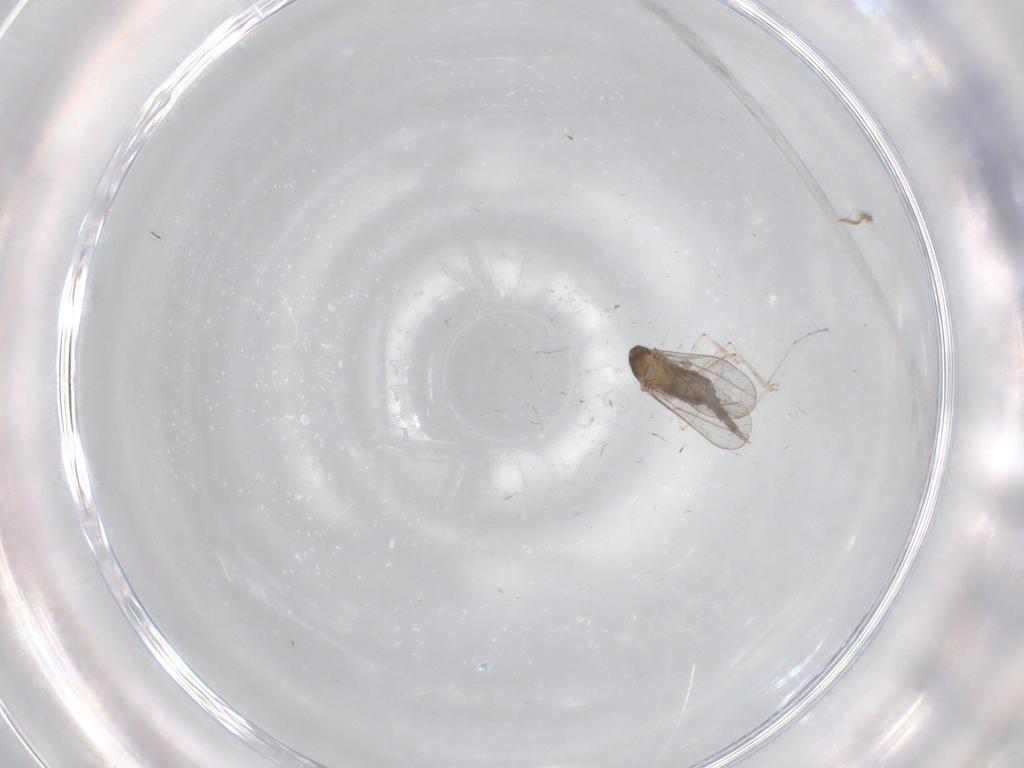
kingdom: Animalia
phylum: Arthropoda
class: Insecta
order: Diptera
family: Cecidomyiidae
